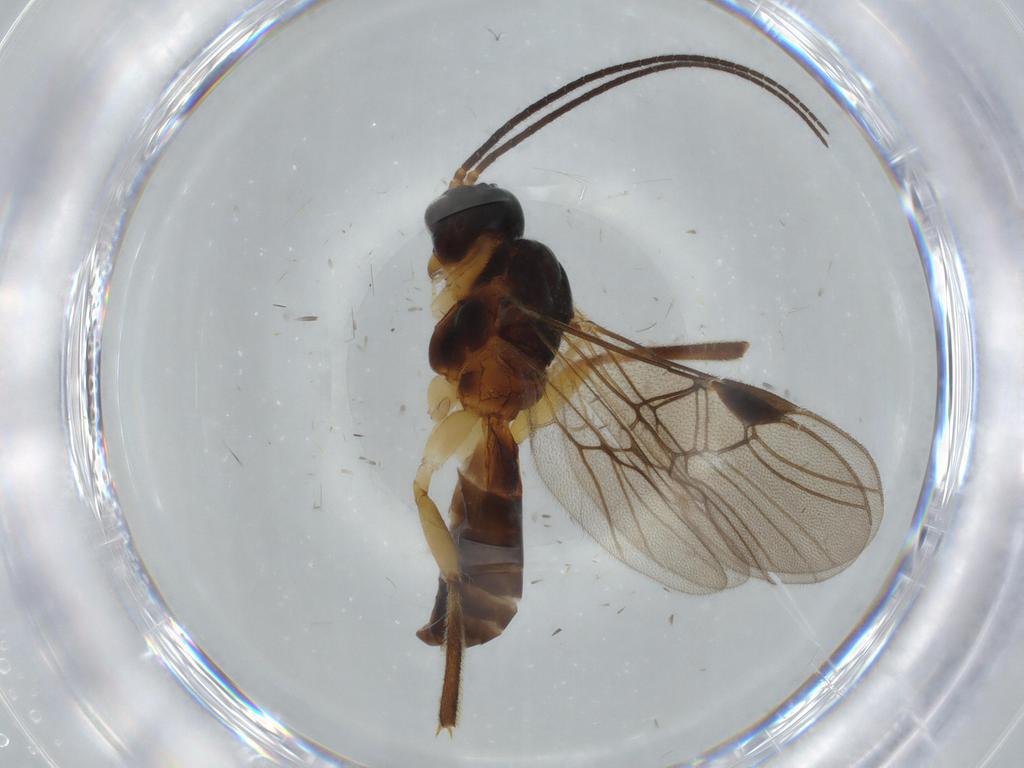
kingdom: Animalia
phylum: Arthropoda
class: Insecta
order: Hymenoptera
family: Braconidae
